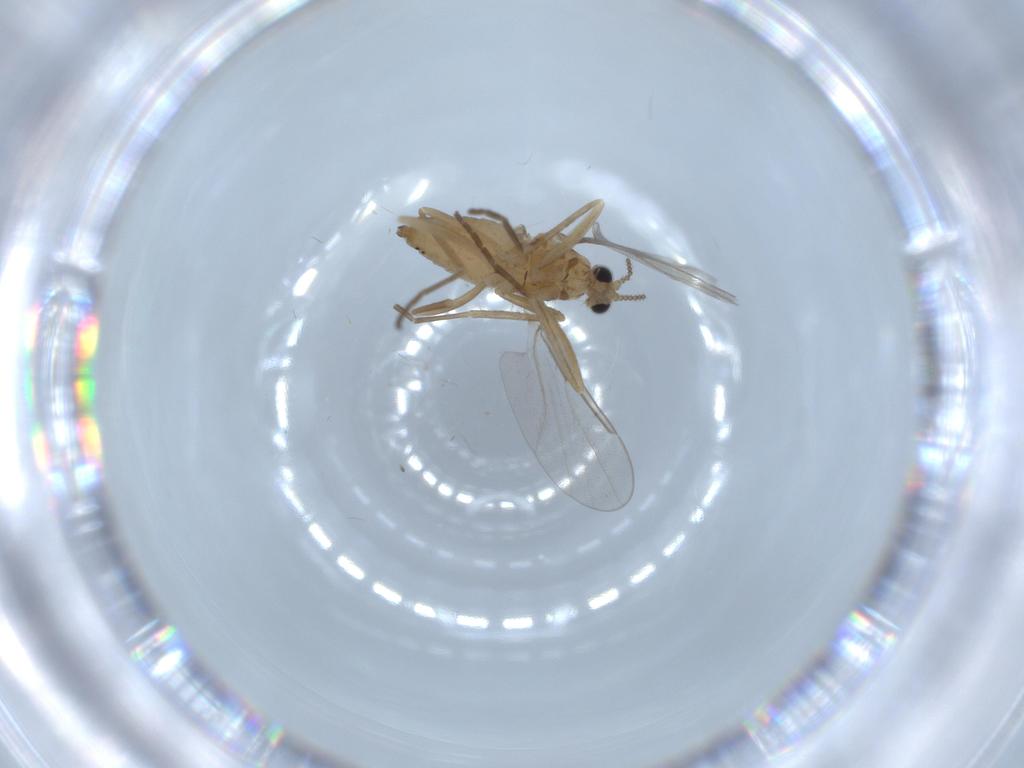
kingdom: Animalia
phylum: Arthropoda
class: Insecta
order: Diptera
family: Cecidomyiidae
